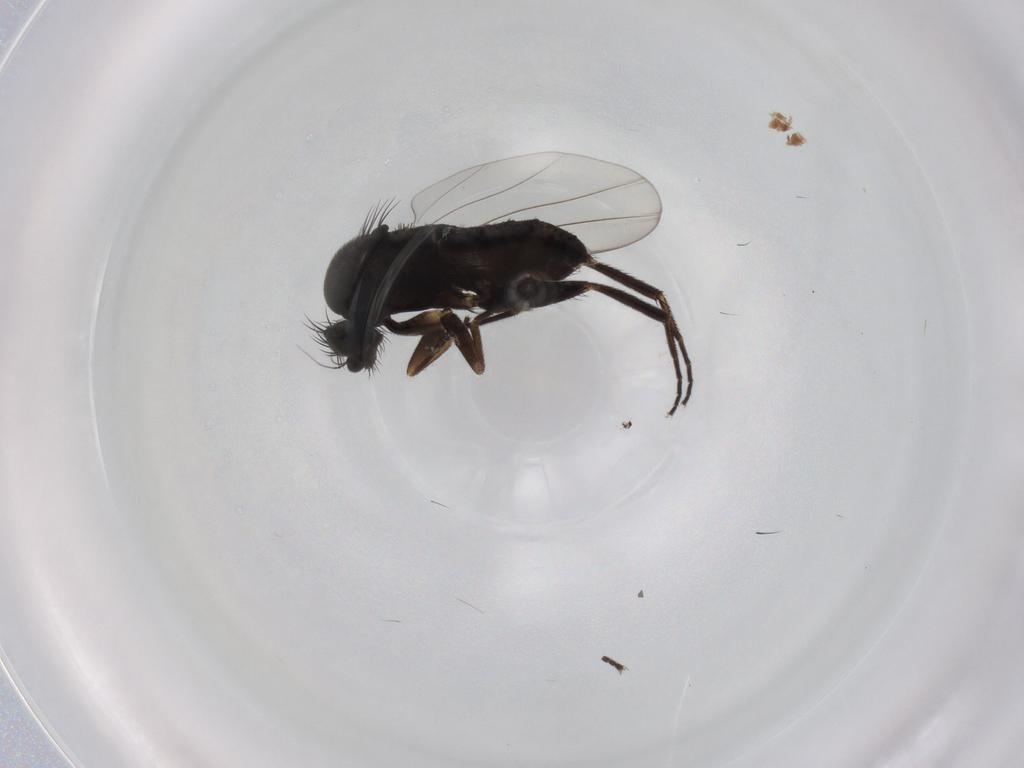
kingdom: Animalia
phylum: Arthropoda
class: Insecta
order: Diptera
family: Phoridae
